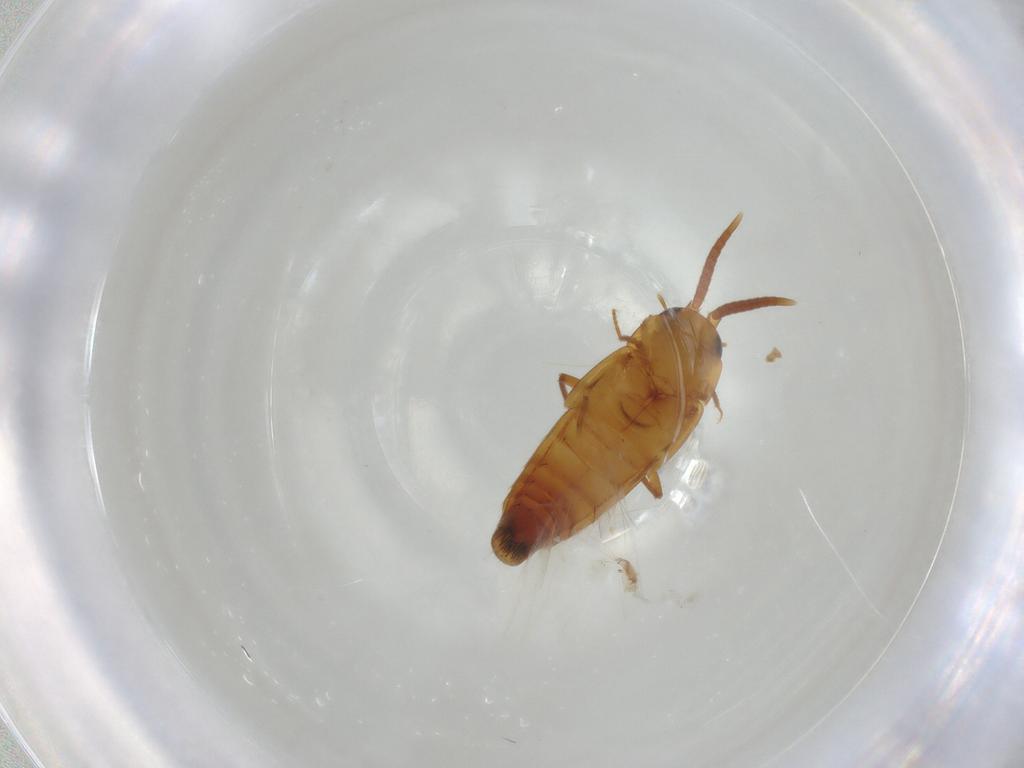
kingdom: Animalia
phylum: Arthropoda
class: Insecta
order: Coleoptera
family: Staphylinidae
